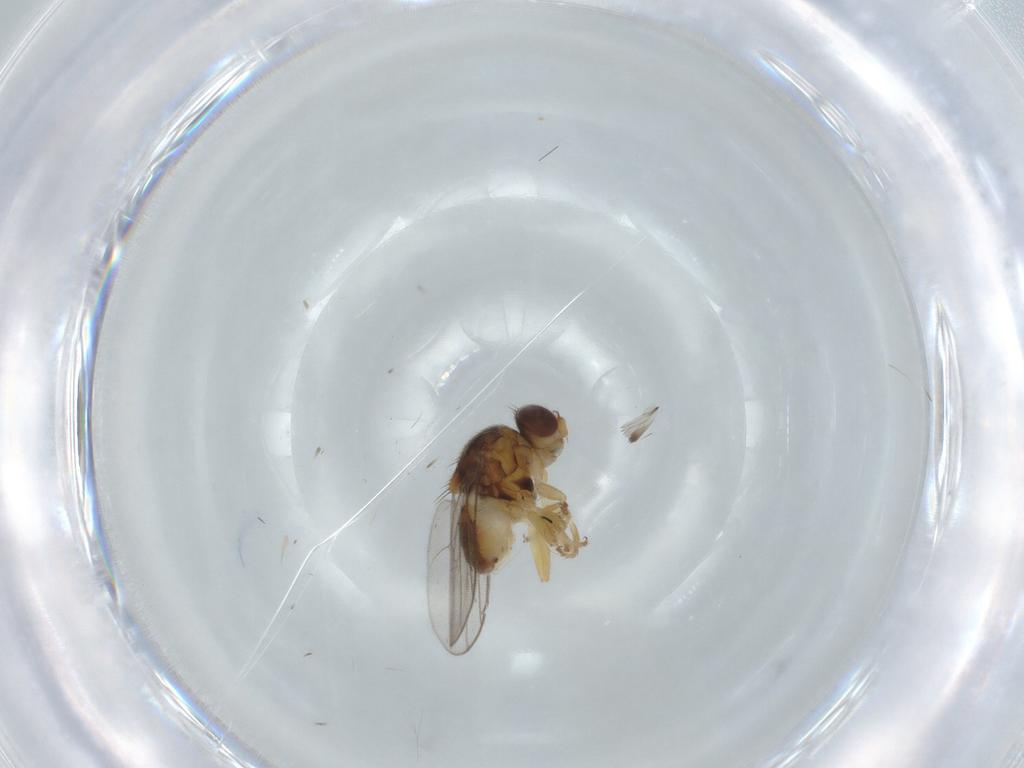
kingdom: Animalia
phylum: Arthropoda
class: Insecta
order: Diptera
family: Chloropidae
